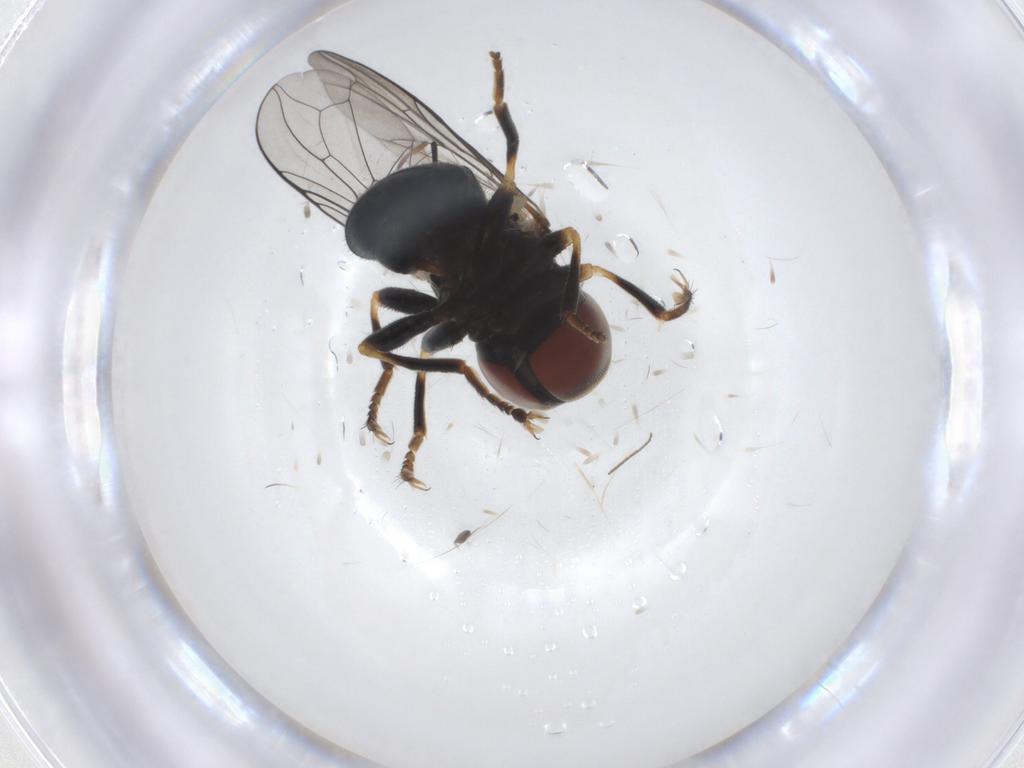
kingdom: Animalia
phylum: Arthropoda
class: Insecta
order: Diptera
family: Pipunculidae
